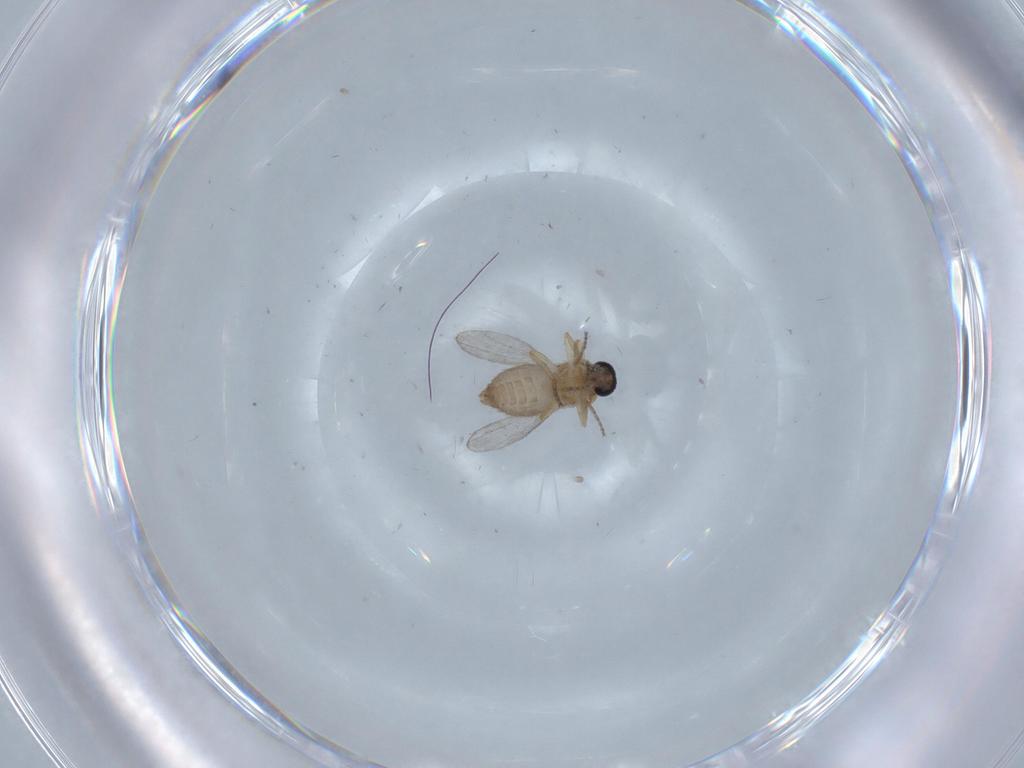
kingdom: Animalia
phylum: Arthropoda
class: Insecta
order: Diptera
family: Ceratopogonidae
